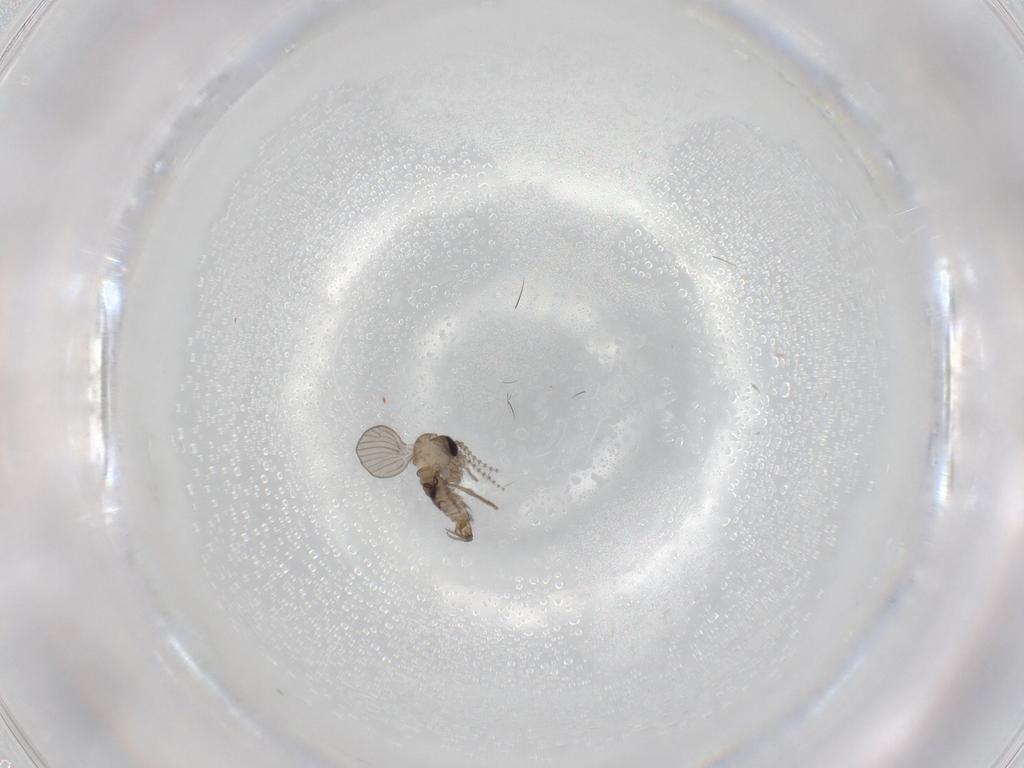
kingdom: Animalia
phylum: Arthropoda
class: Insecta
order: Diptera
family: Psychodidae
